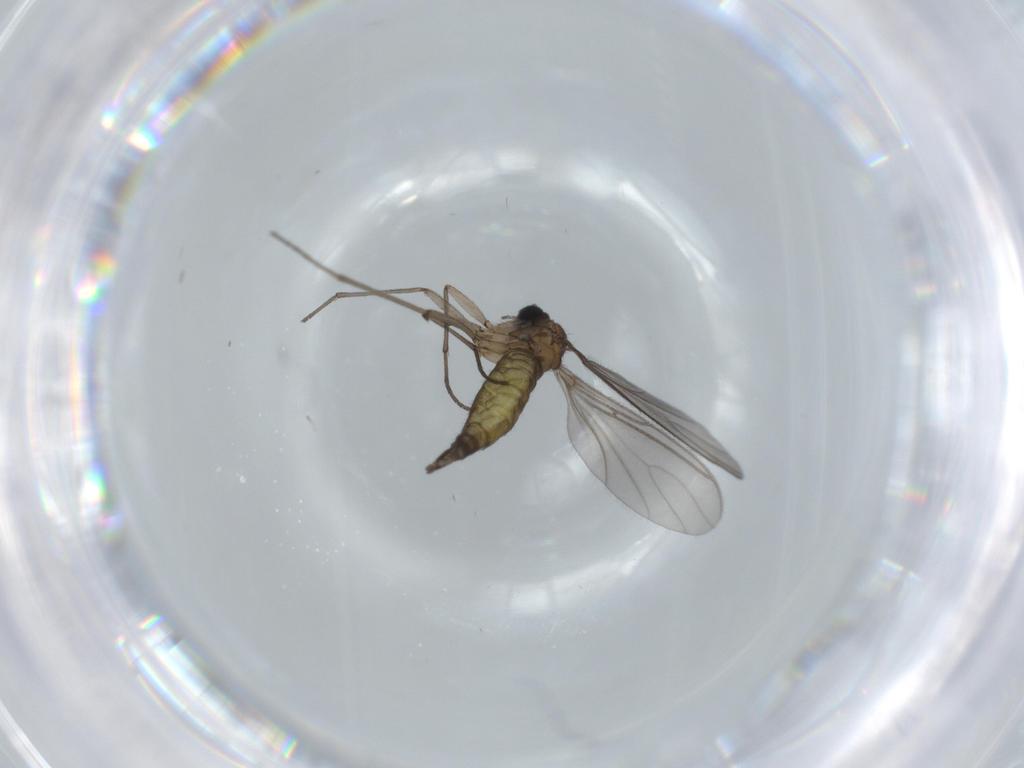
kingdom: Animalia
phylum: Arthropoda
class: Insecta
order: Diptera
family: Sciaridae
